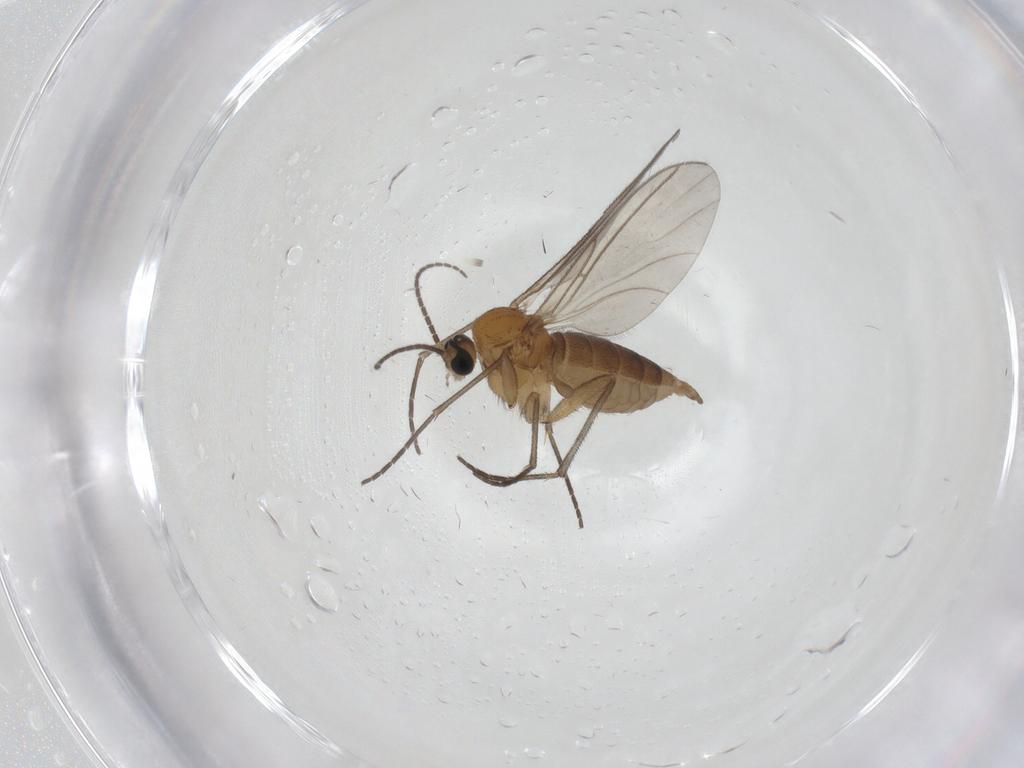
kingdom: Animalia
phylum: Arthropoda
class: Insecta
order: Diptera
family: Sciaridae
